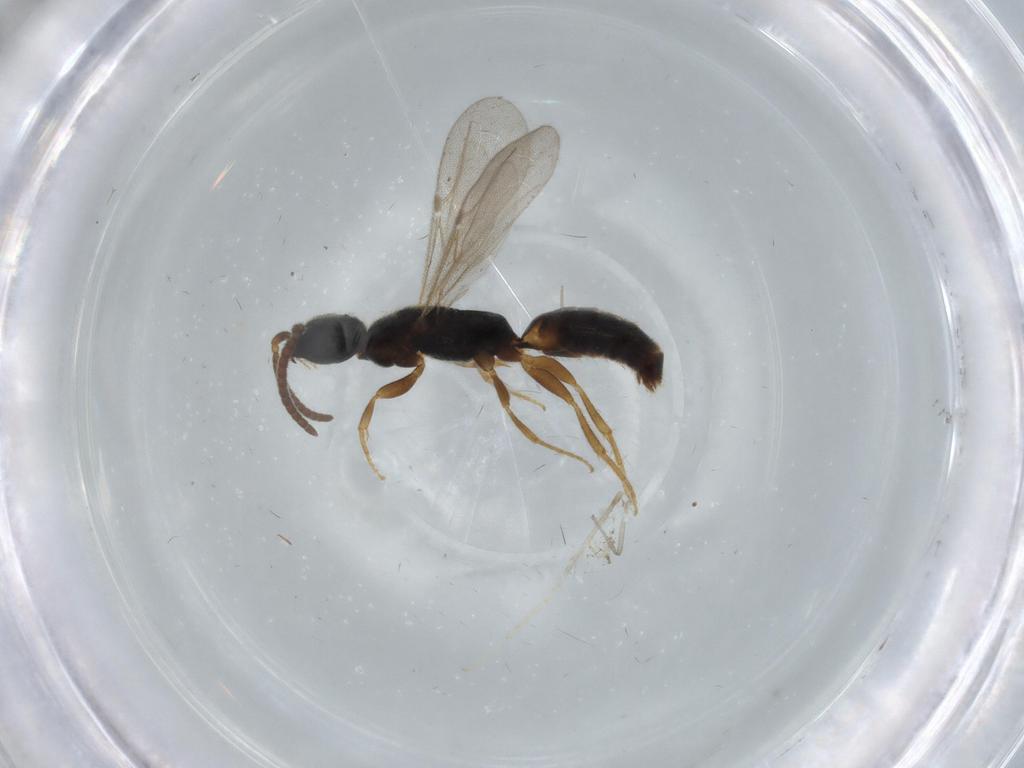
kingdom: Animalia
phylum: Arthropoda
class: Insecta
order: Hymenoptera
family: Bethylidae
